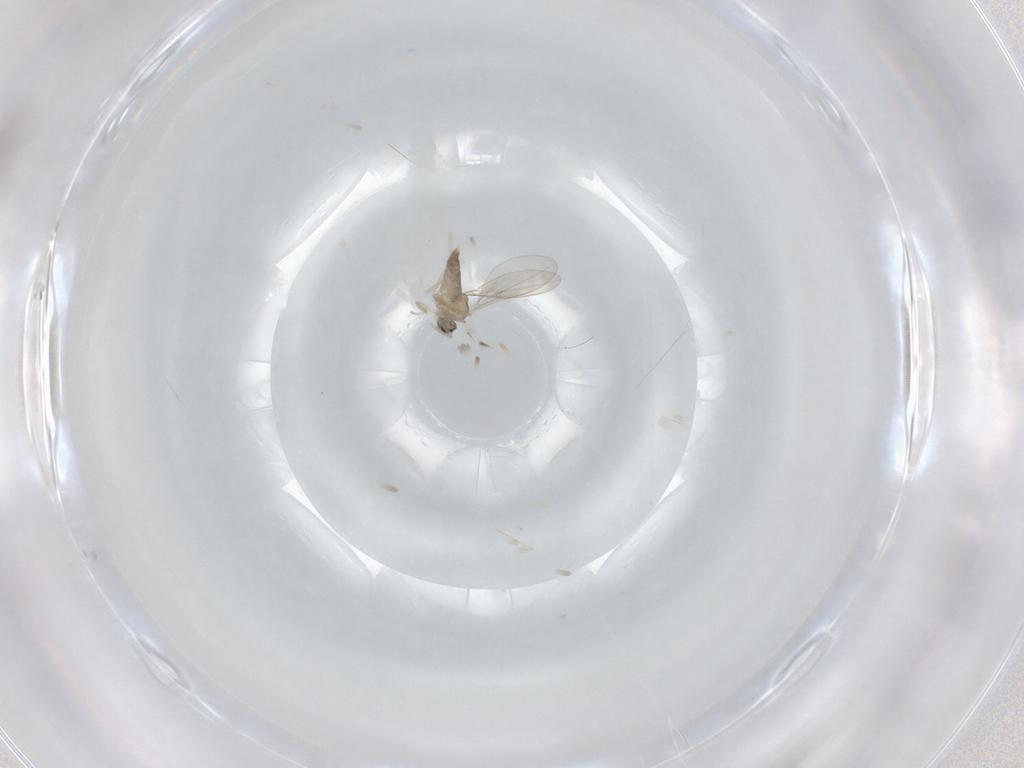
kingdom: Animalia
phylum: Arthropoda
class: Insecta
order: Diptera
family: Cecidomyiidae
